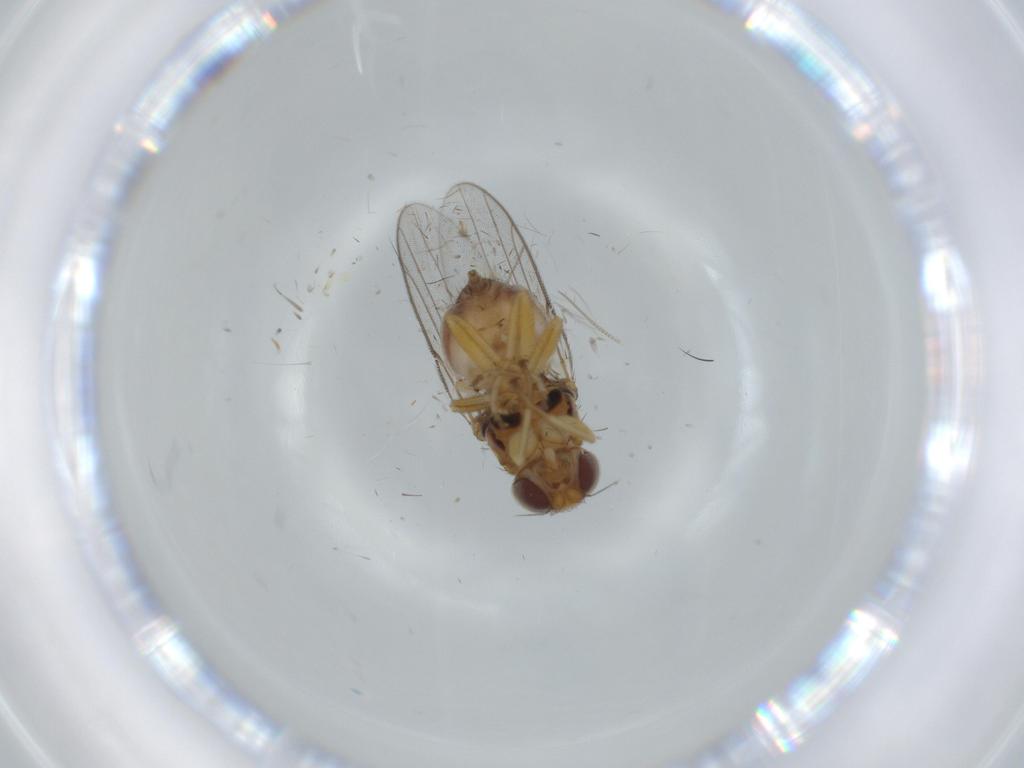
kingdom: Animalia
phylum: Arthropoda
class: Insecta
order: Diptera
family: Chloropidae
